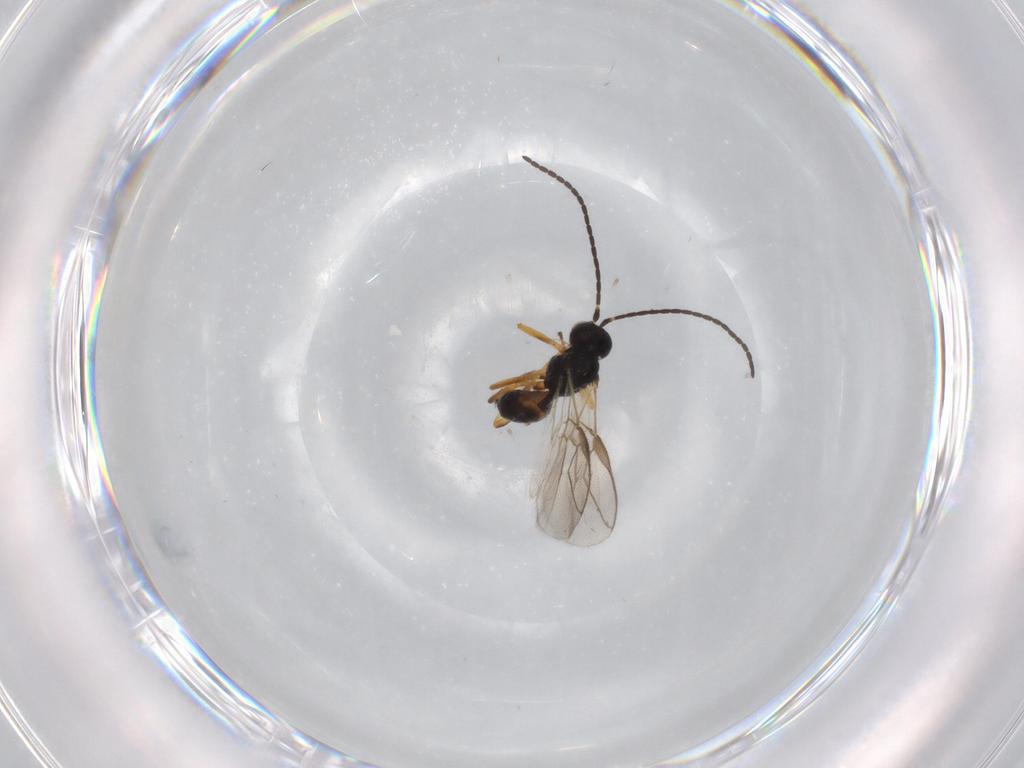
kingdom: Animalia
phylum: Arthropoda
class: Insecta
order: Hymenoptera
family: Braconidae
